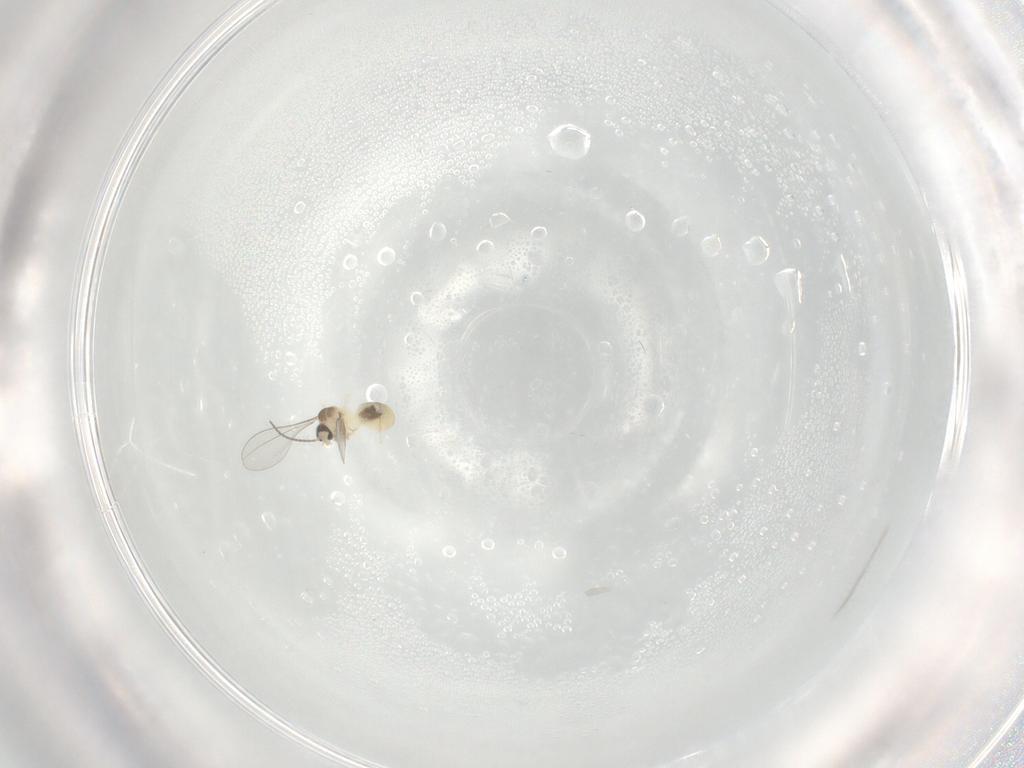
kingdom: Animalia
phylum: Arthropoda
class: Insecta
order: Diptera
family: Cecidomyiidae
